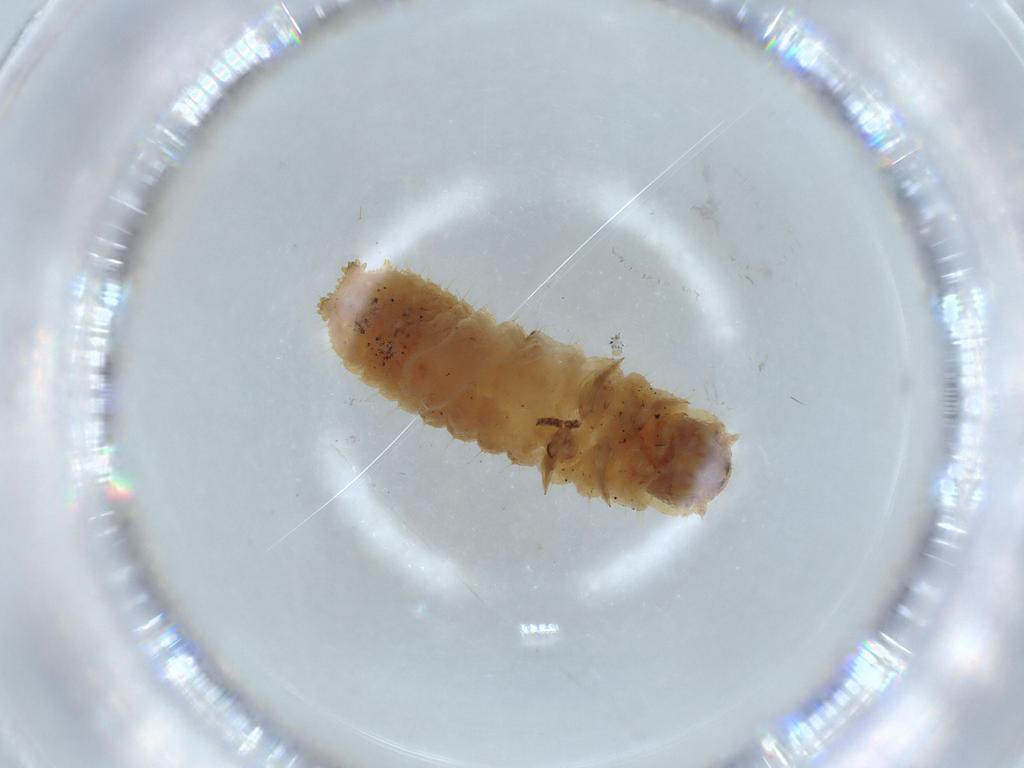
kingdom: Animalia
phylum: Arthropoda
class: Insecta
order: Coleoptera
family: Erotylidae
